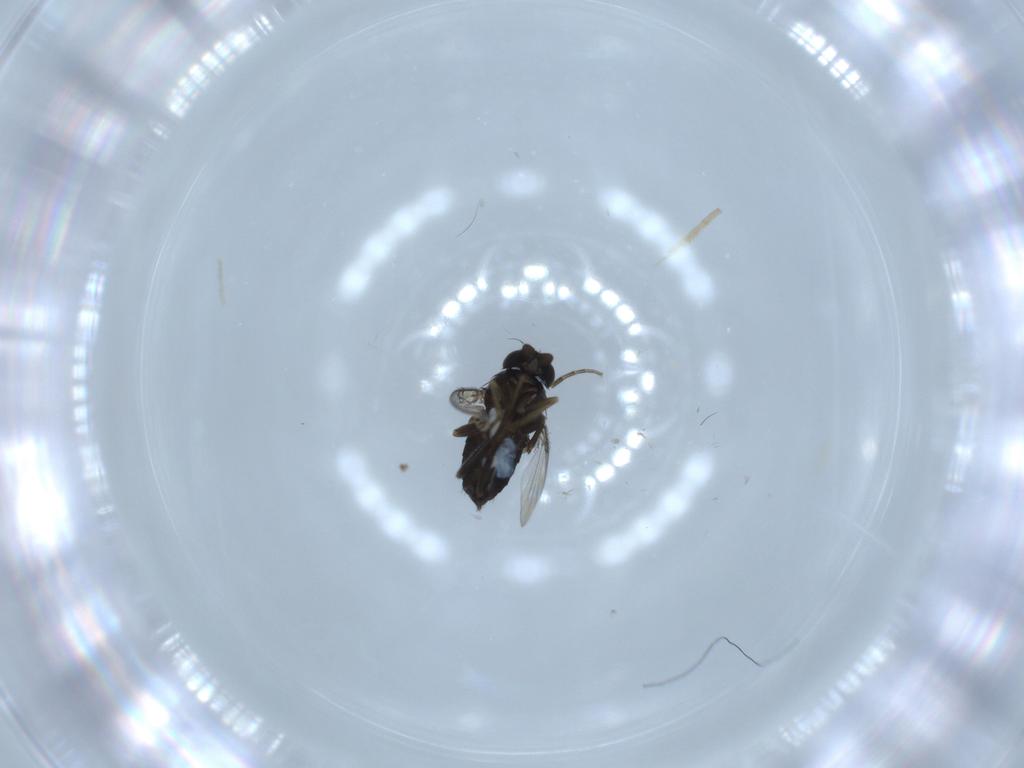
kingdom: Animalia
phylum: Arthropoda
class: Insecta
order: Diptera
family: Phoridae
